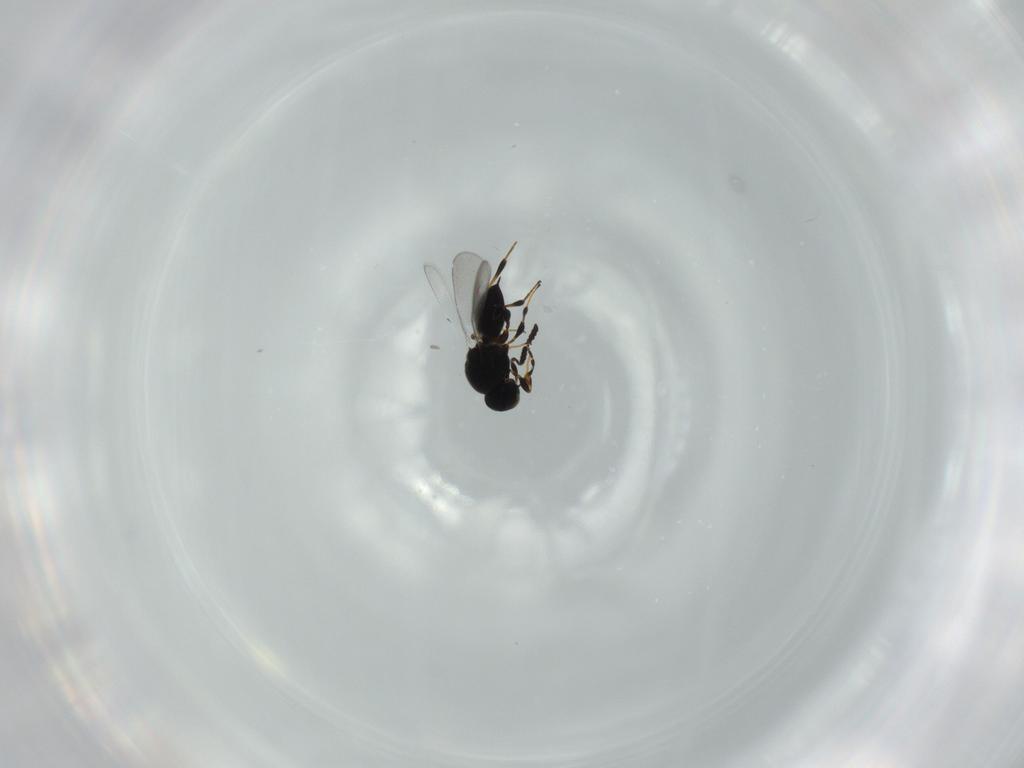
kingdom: Animalia
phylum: Arthropoda
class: Insecta
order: Hymenoptera
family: Platygastridae
